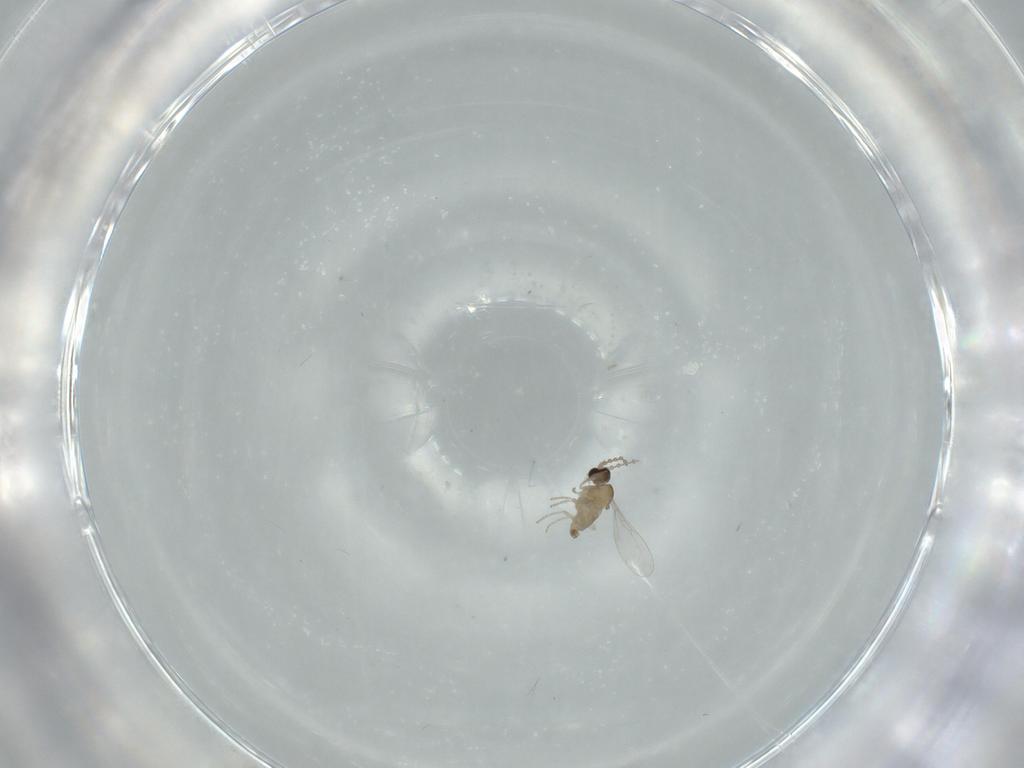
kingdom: Animalia
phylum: Arthropoda
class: Insecta
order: Diptera
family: Cecidomyiidae
